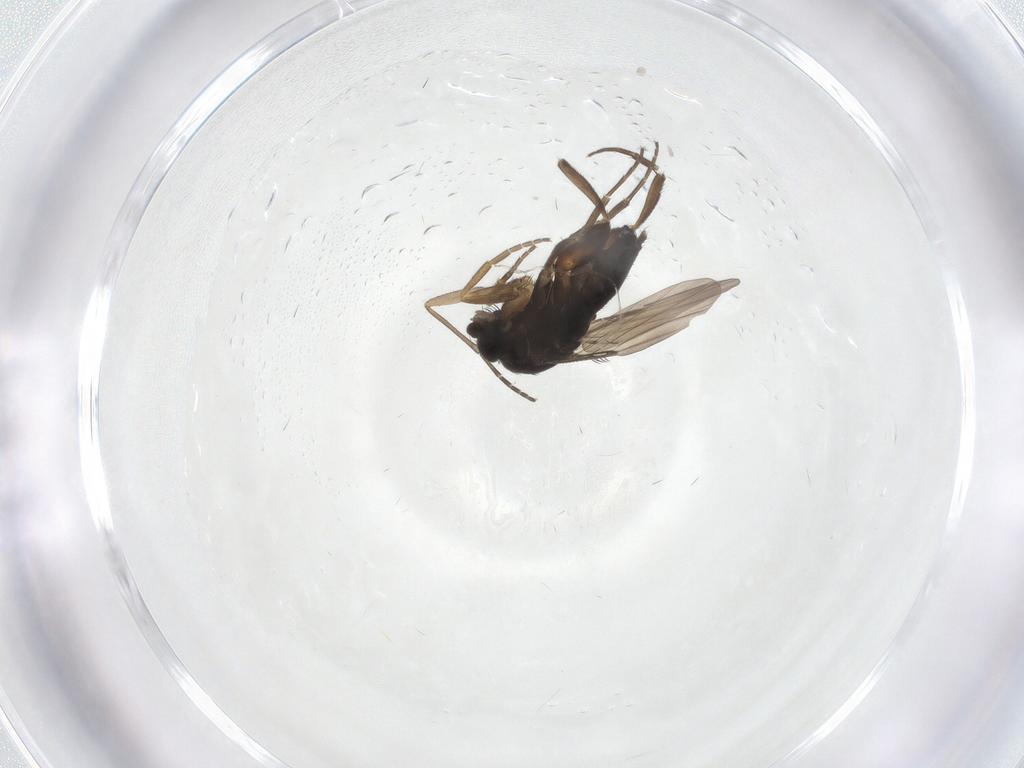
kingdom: Animalia
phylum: Arthropoda
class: Insecta
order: Diptera
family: Phoridae
